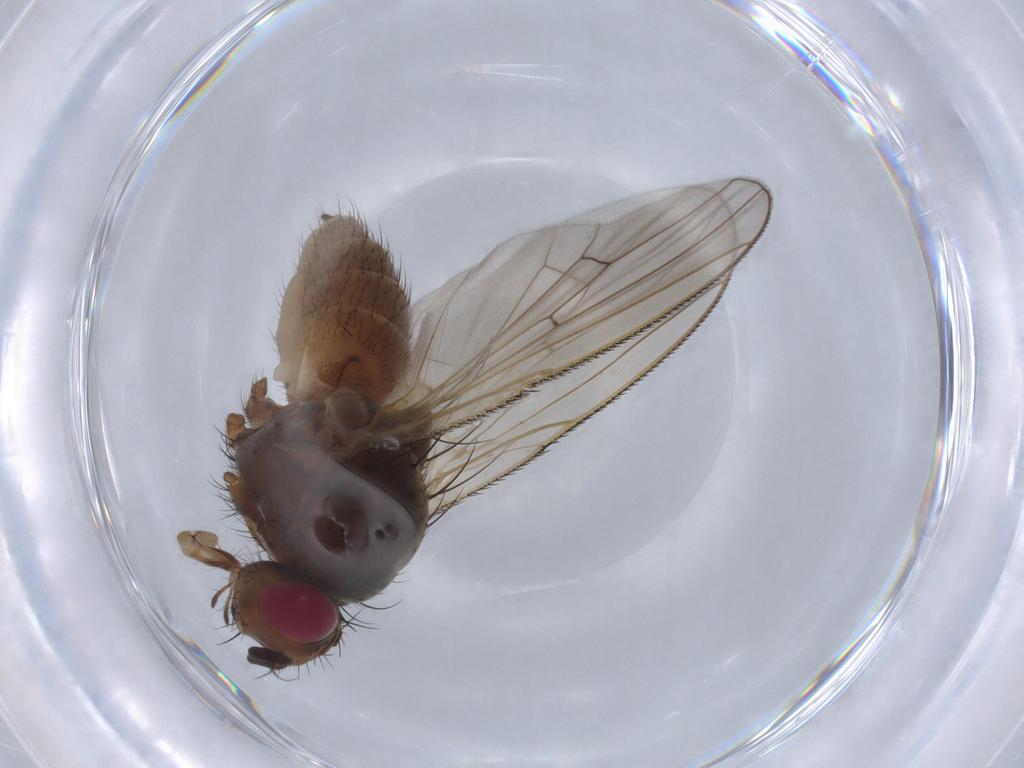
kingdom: Animalia
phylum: Arthropoda
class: Insecta
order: Diptera
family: Anthomyiidae
